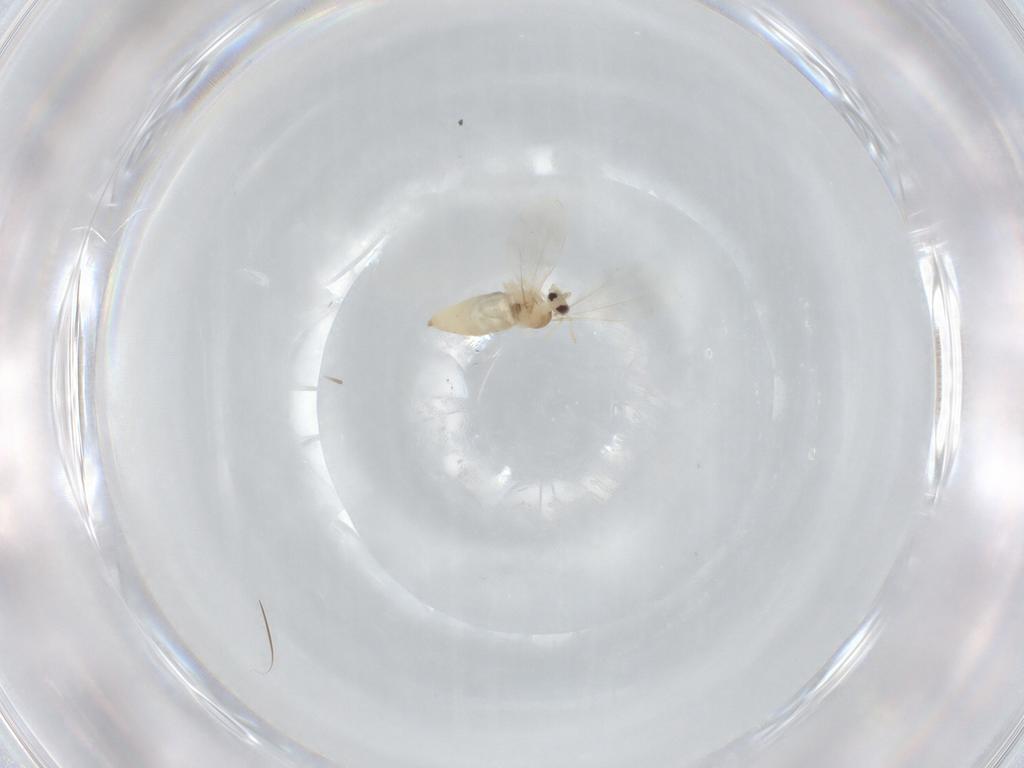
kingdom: Animalia
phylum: Arthropoda
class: Insecta
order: Diptera
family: Cecidomyiidae
